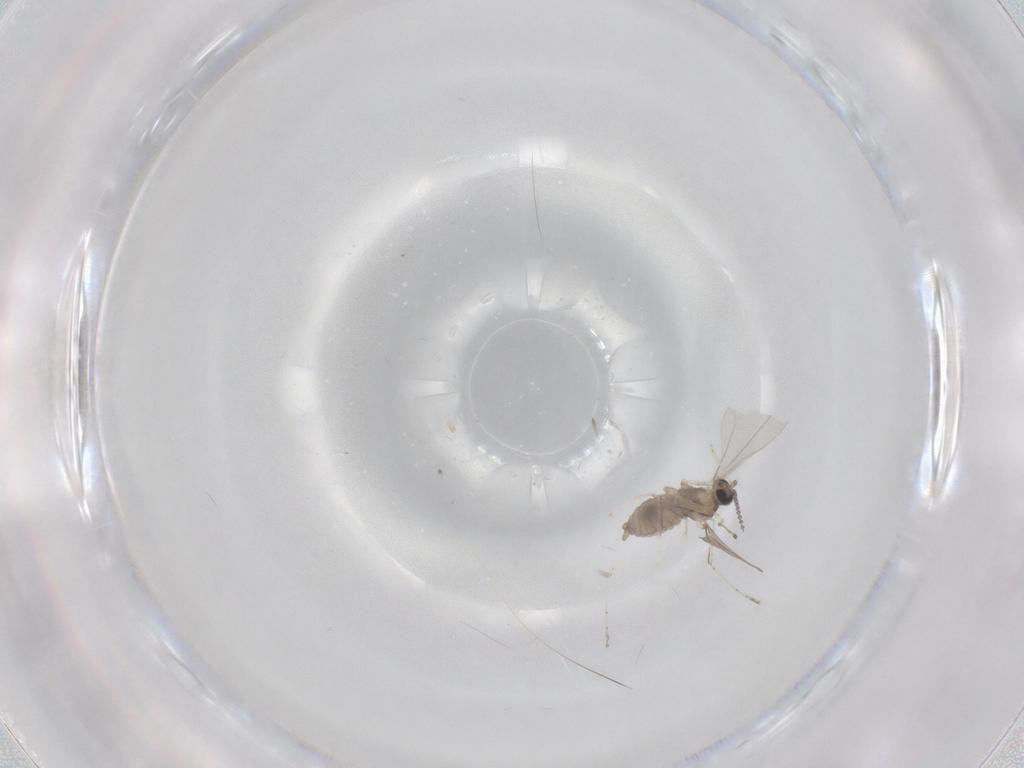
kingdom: Animalia
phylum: Arthropoda
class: Insecta
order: Diptera
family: Cecidomyiidae
